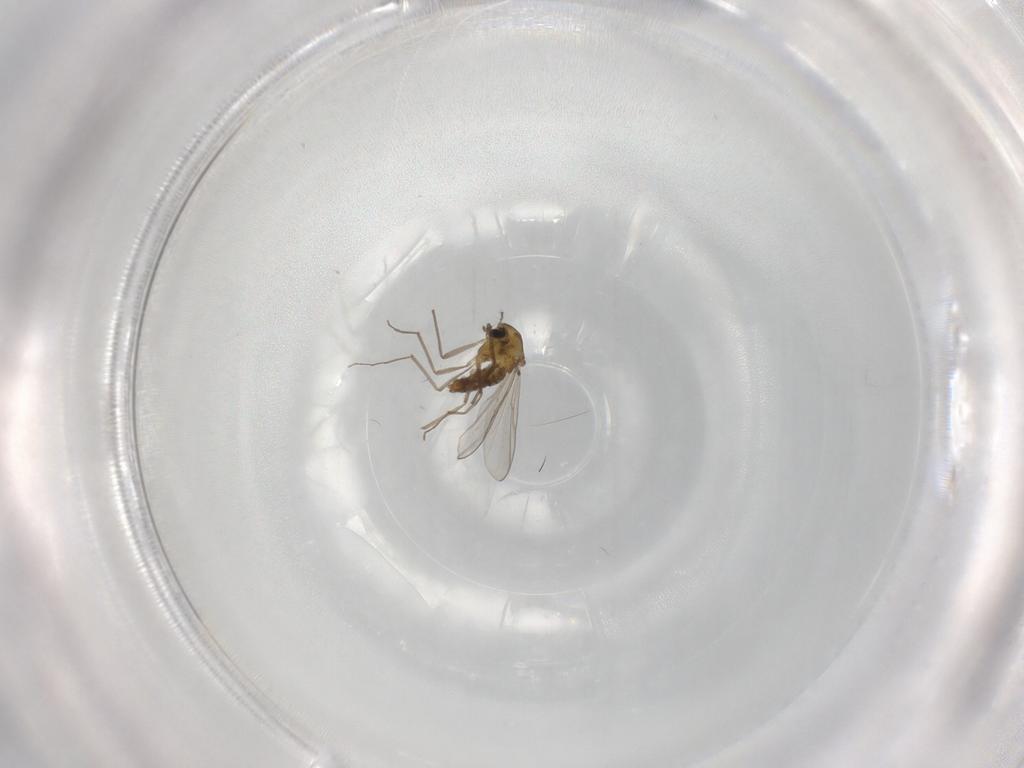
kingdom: Animalia
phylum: Arthropoda
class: Insecta
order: Diptera
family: Chironomidae
